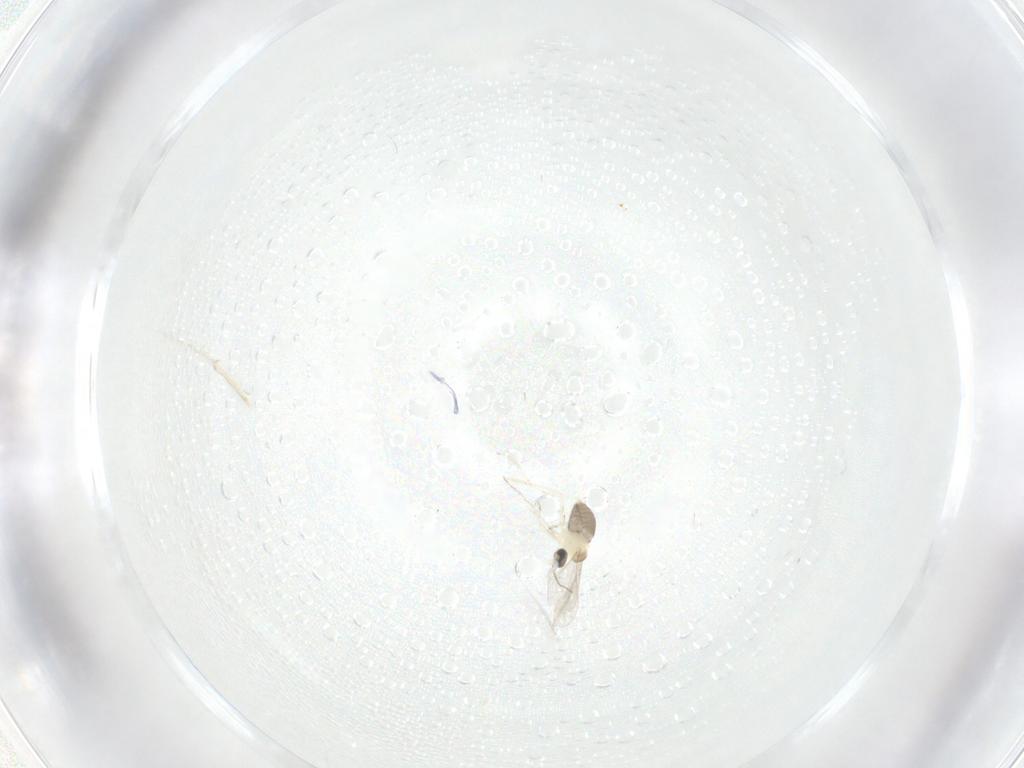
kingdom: Animalia
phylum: Arthropoda
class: Insecta
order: Diptera
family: Cecidomyiidae
